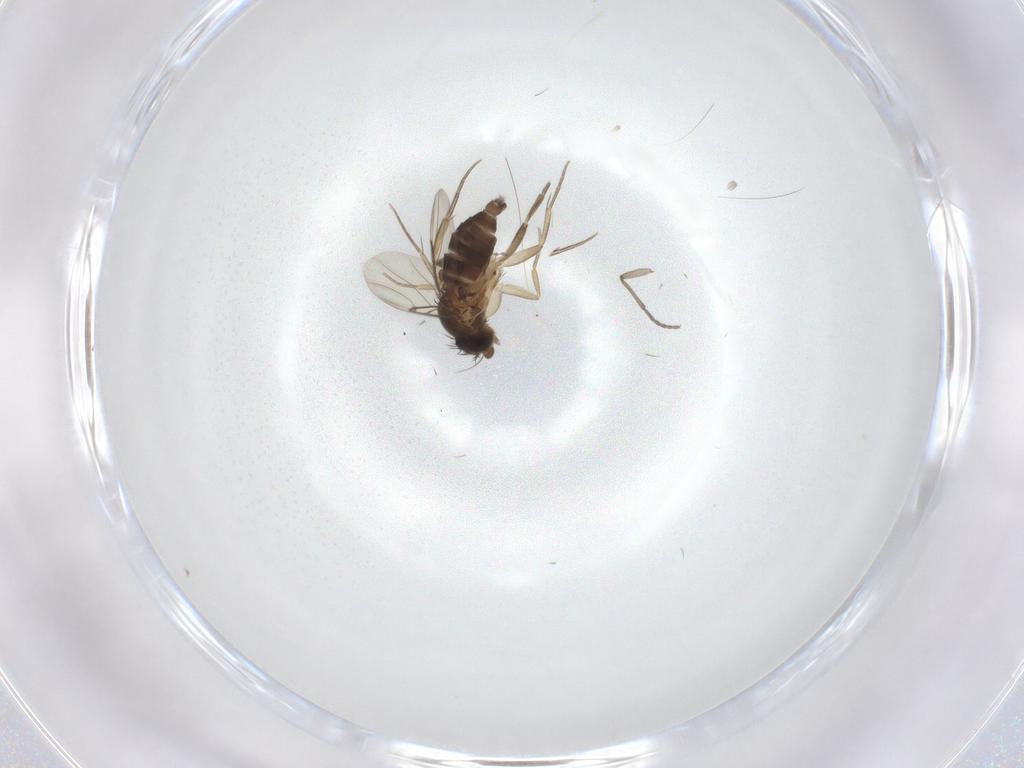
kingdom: Animalia
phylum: Arthropoda
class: Insecta
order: Diptera
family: Phoridae
